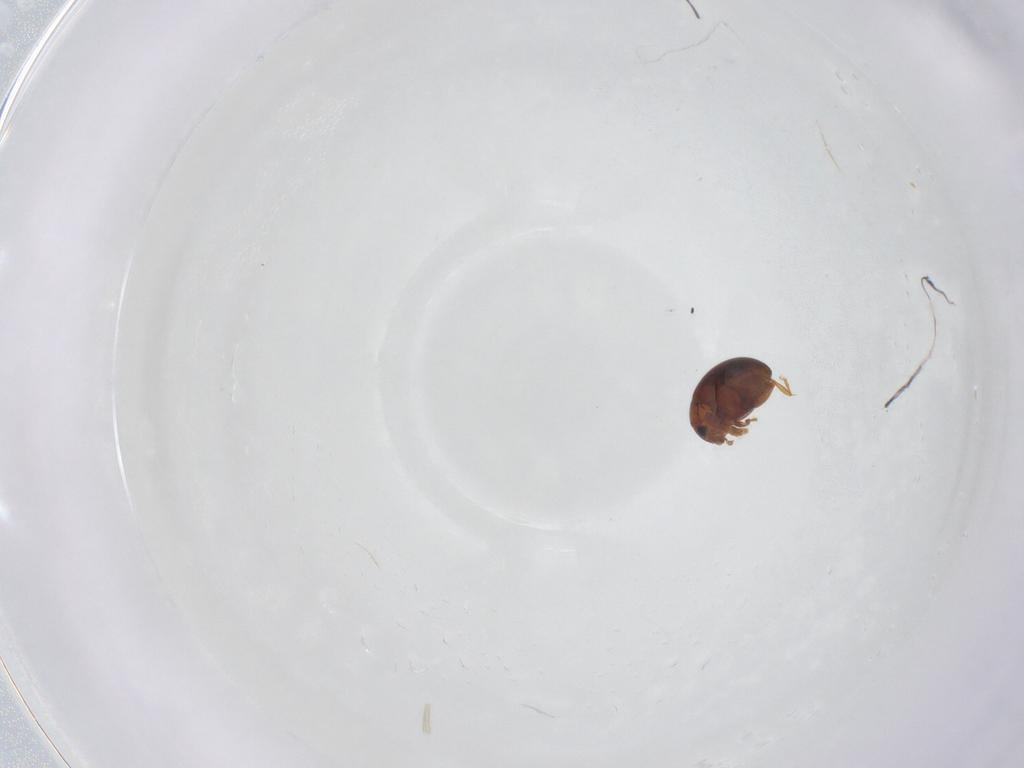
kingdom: Animalia
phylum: Arthropoda
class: Insecta
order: Coleoptera
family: Chrysomelidae
